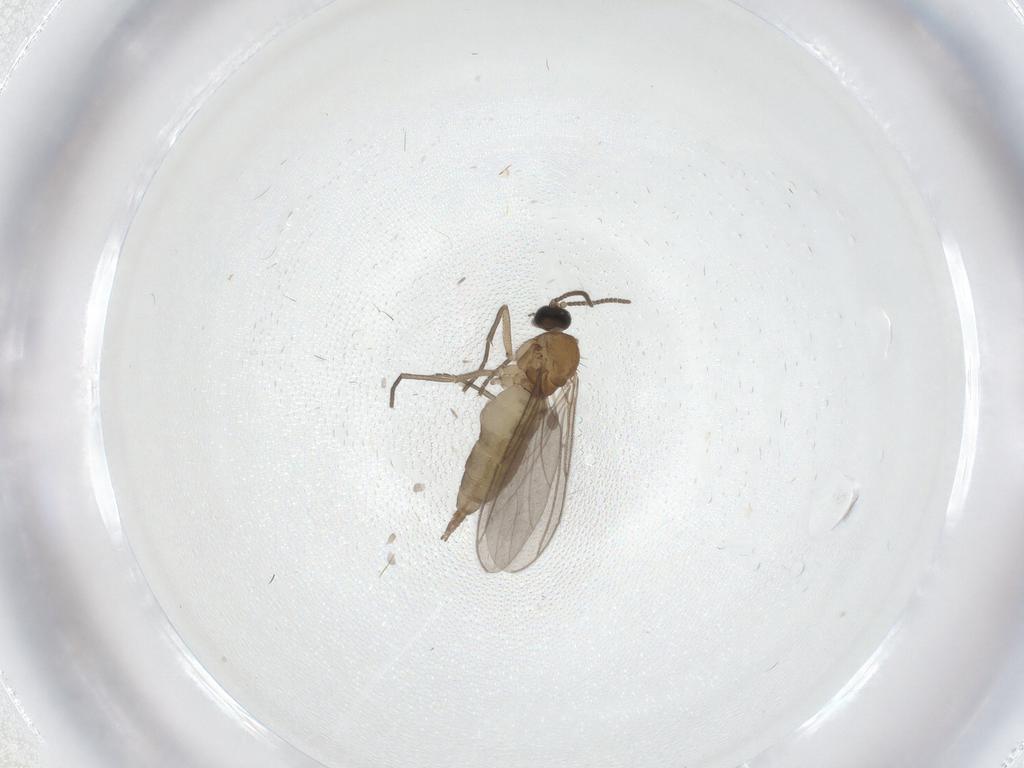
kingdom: Animalia
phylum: Arthropoda
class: Insecta
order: Diptera
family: Sciaridae
